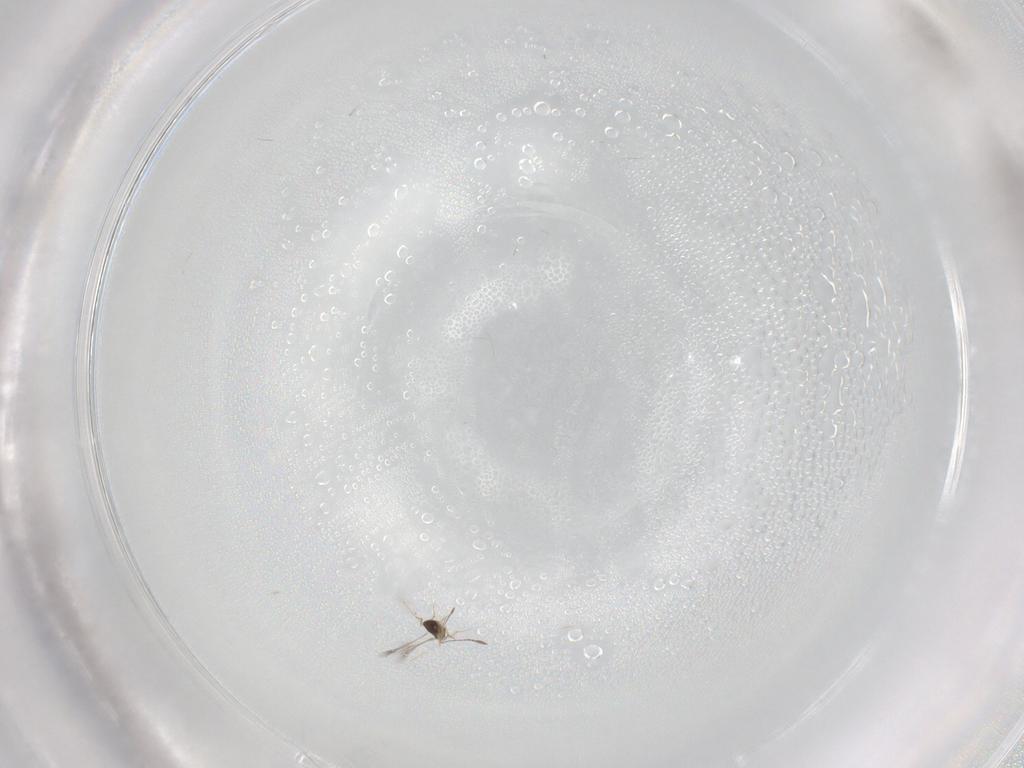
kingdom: Animalia
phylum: Arthropoda
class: Insecta
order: Hymenoptera
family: Mymaridae
